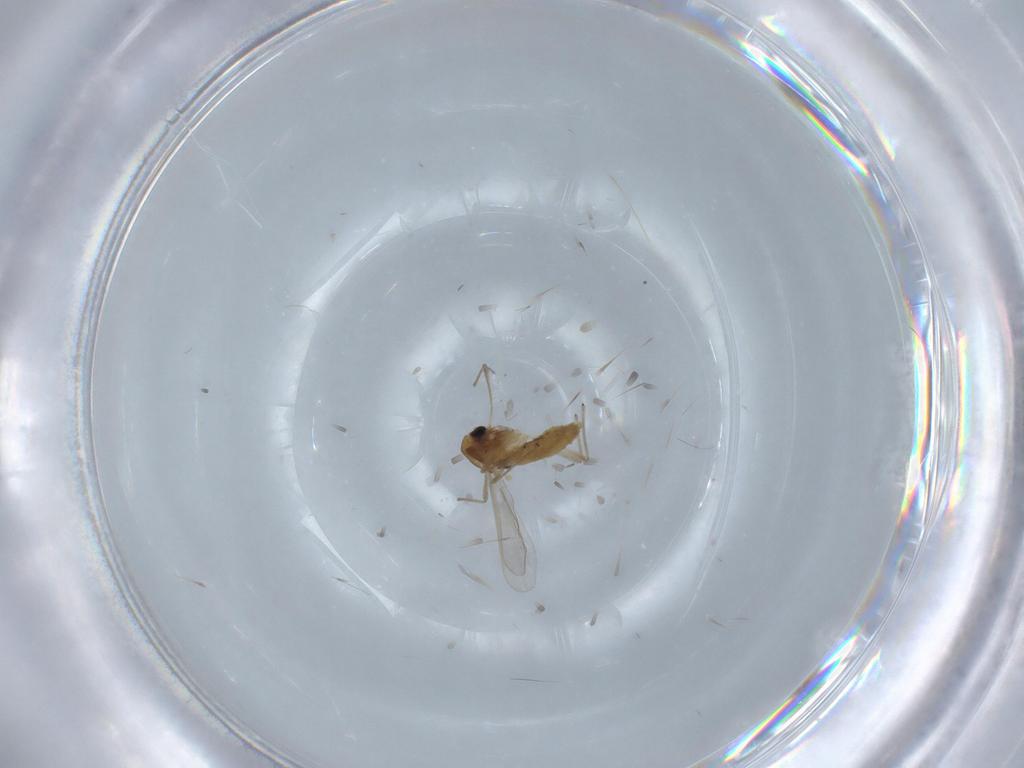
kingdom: Animalia
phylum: Arthropoda
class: Insecta
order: Diptera
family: Chironomidae
